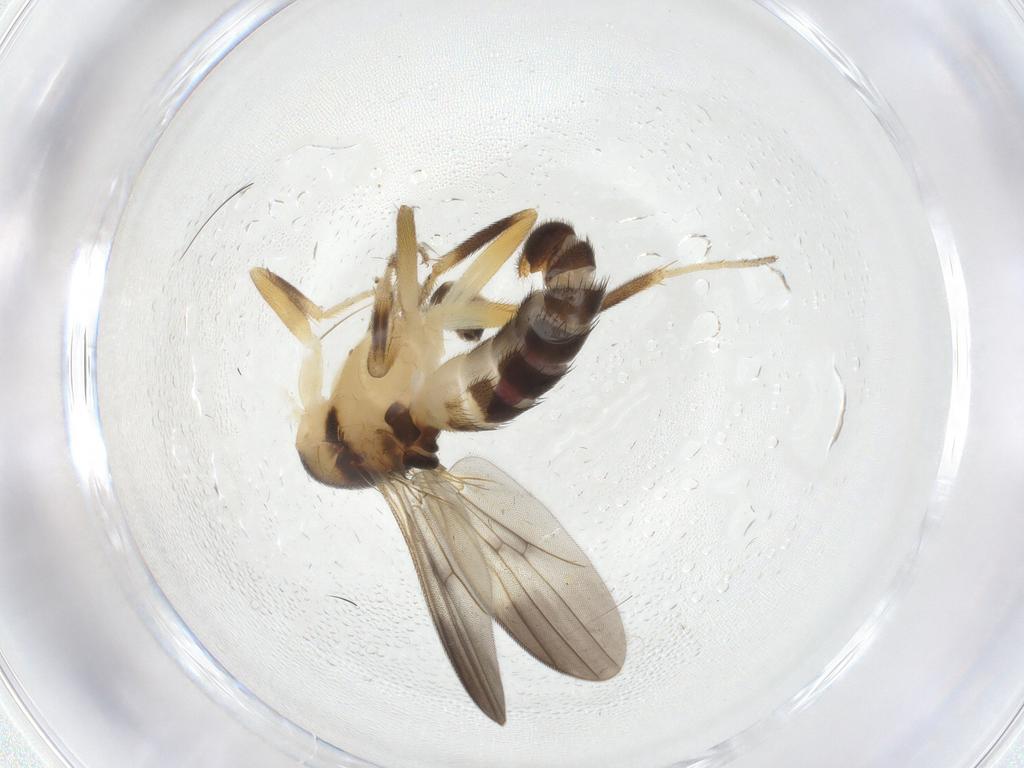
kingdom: Animalia
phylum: Arthropoda
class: Insecta
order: Diptera
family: Clusiidae
